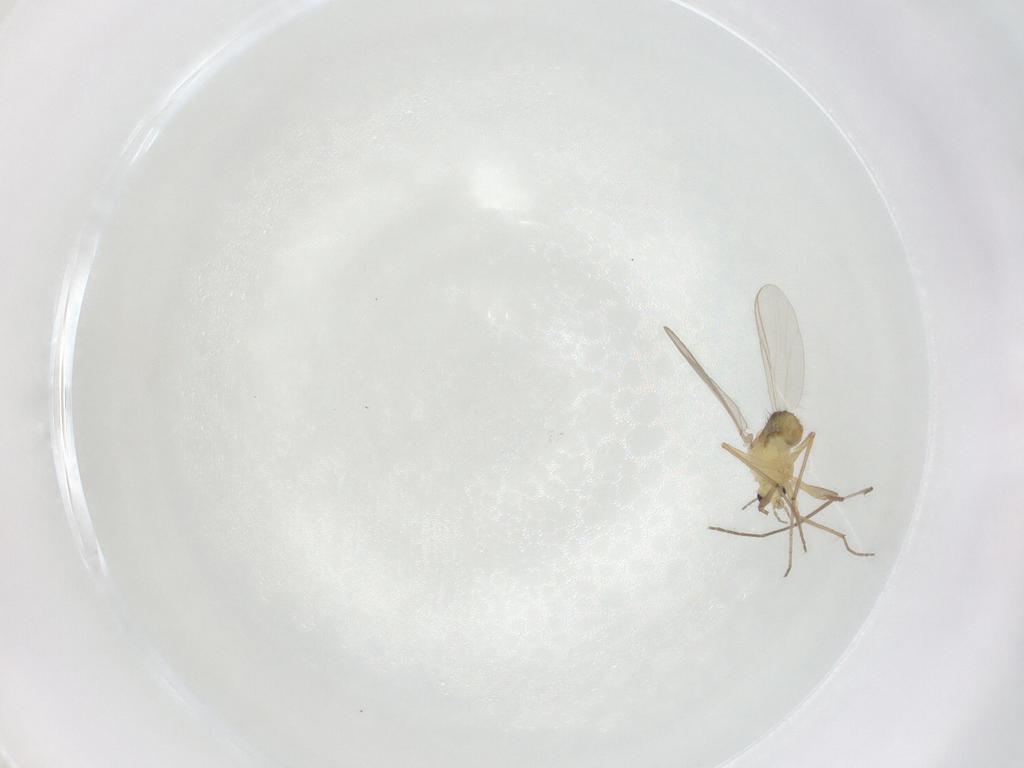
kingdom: Animalia
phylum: Arthropoda
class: Insecta
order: Diptera
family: Chironomidae
